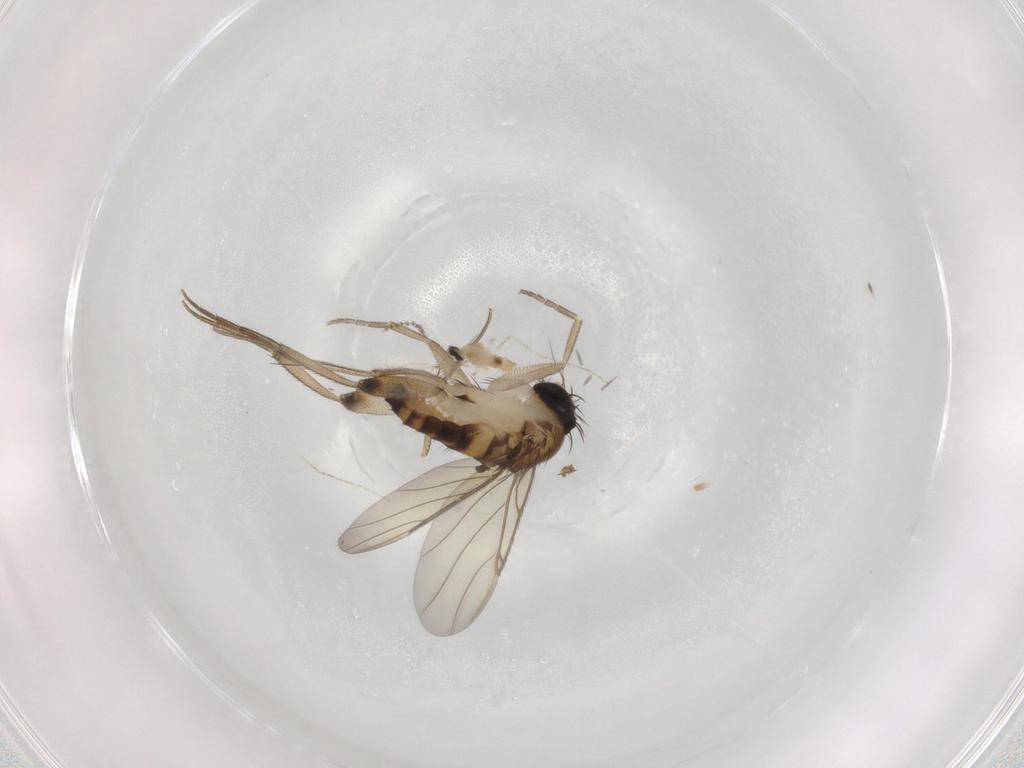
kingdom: Animalia
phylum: Arthropoda
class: Insecta
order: Diptera
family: Phoridae
